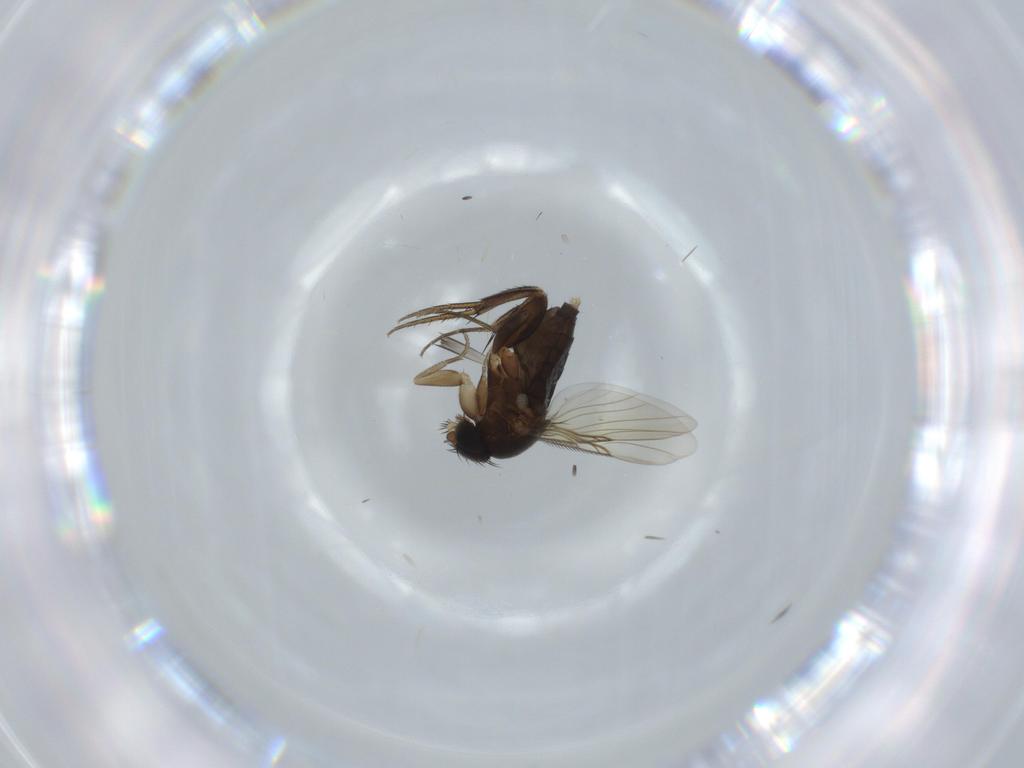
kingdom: Animalia
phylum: Arthropoda
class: Insecta
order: Diptera
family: Phoridae
